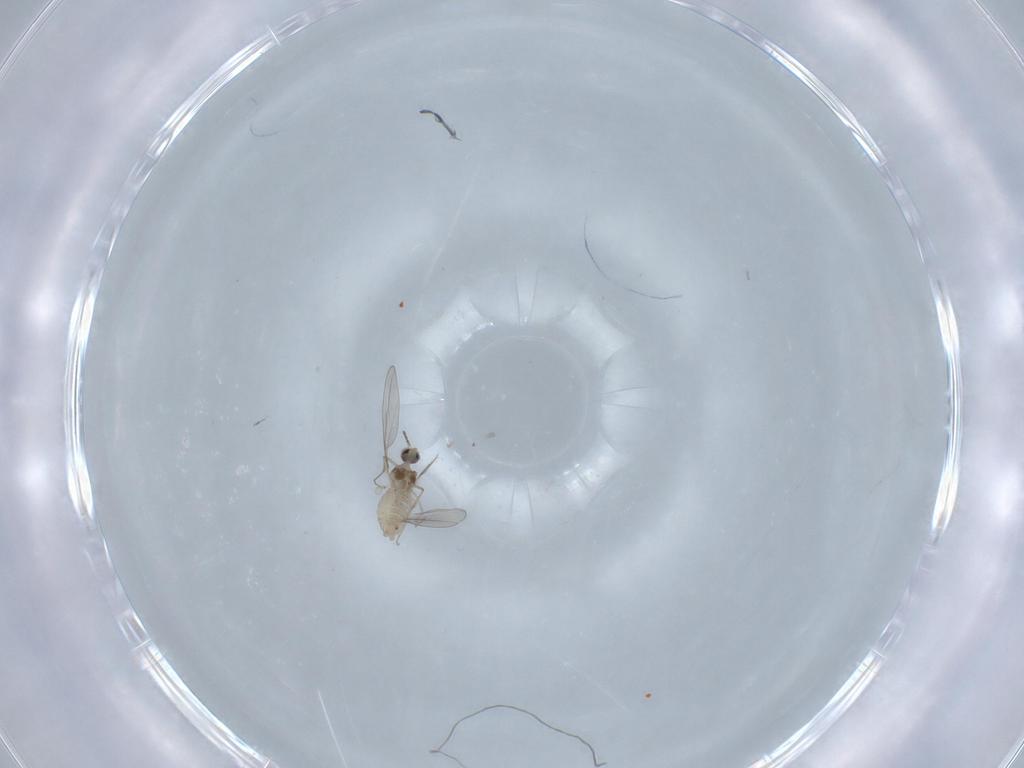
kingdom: Animalia
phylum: Arthropoda
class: Insecta
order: Diptera
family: Cecidomyiidae
